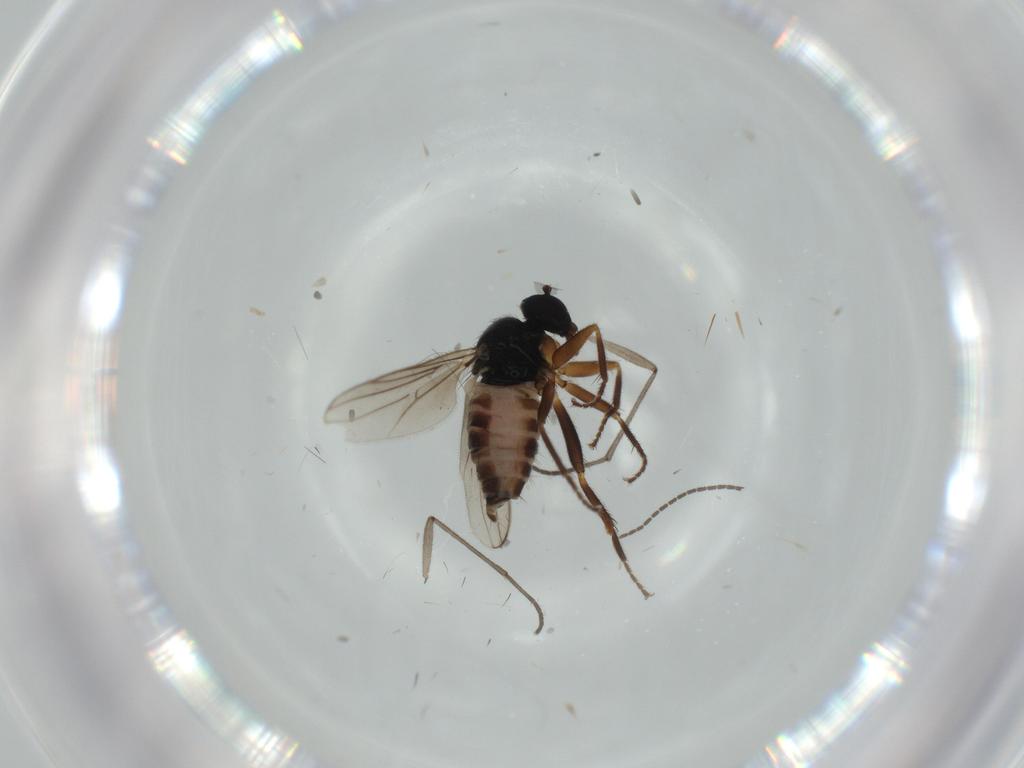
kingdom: Animalia
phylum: Arthropoda
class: Insecta
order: Diptera
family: Hybotidae
